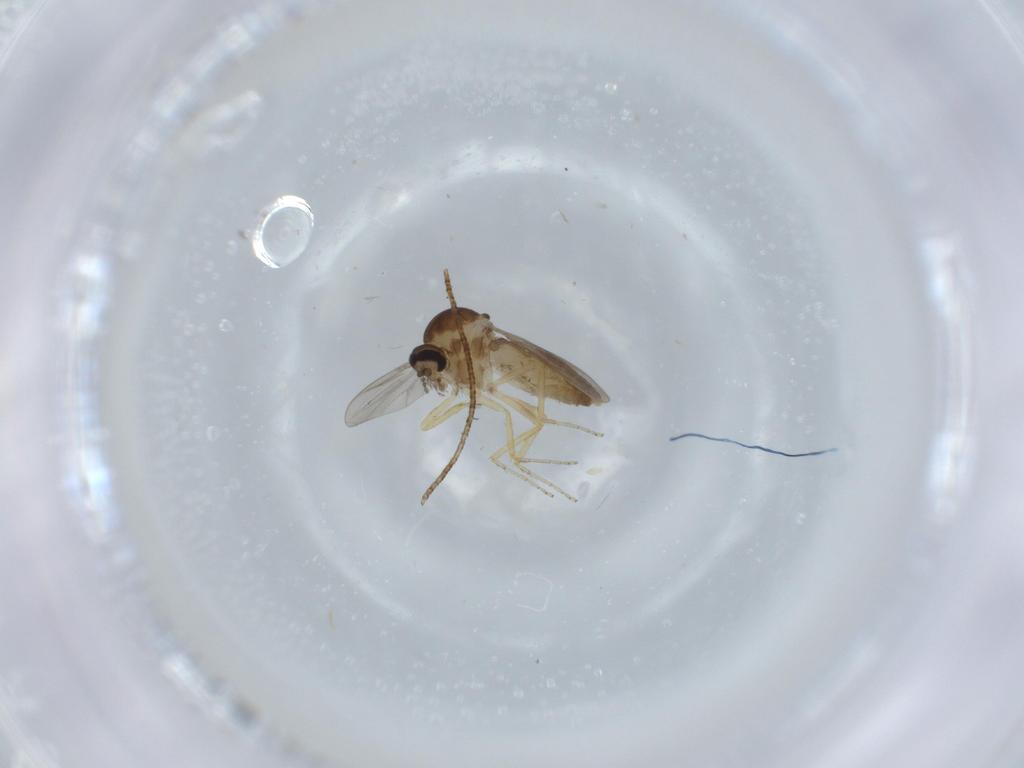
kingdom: Animalia
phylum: Arthropoda
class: Insecta
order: Diptera
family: Ceratopogonidae
